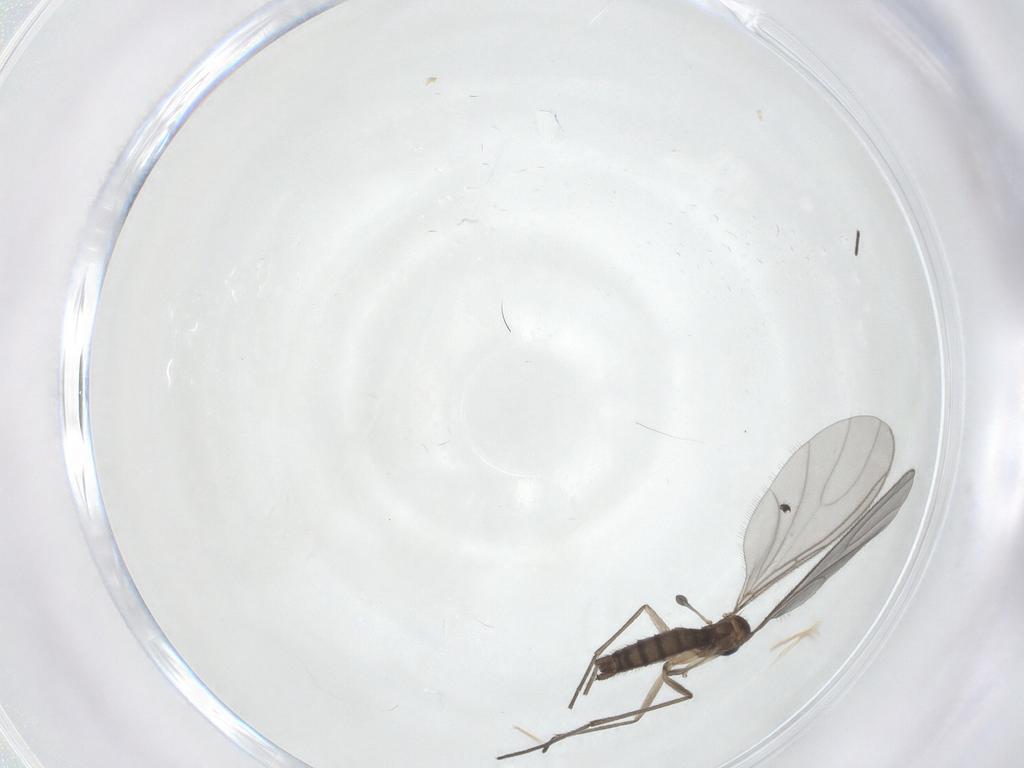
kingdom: Animalia
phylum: Arthropoda
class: Insecta
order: Diptera
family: Sciaridae
